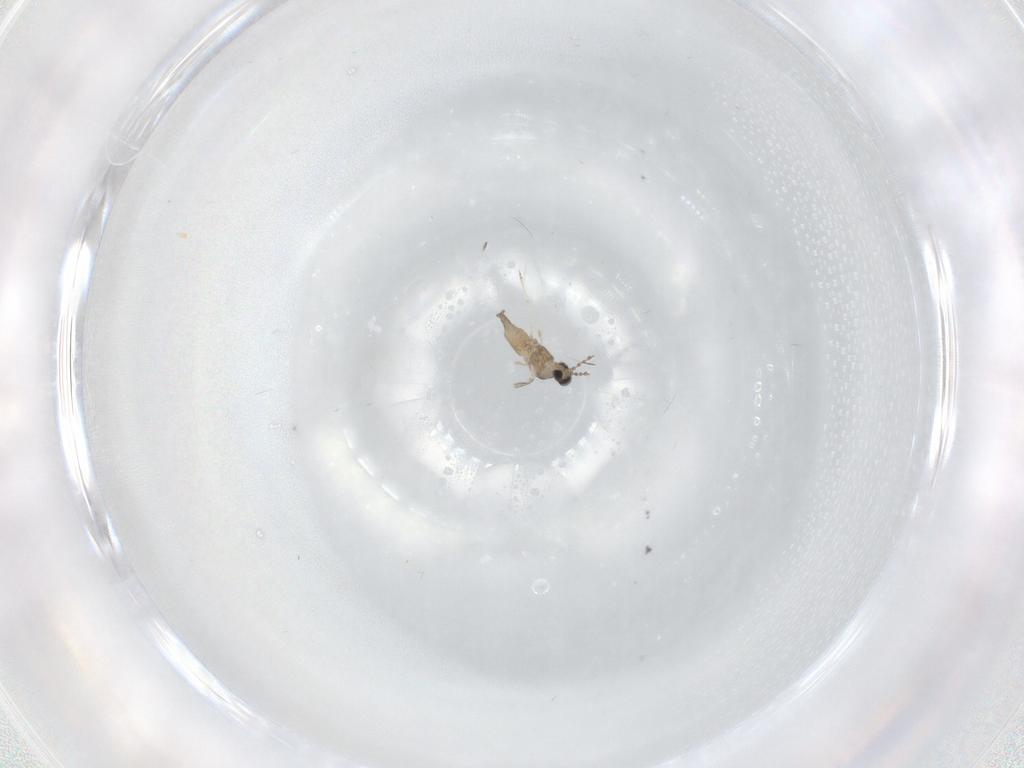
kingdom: Animalia
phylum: Arthropoda
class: Insecta
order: Diptera
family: Cecidomyiidae
